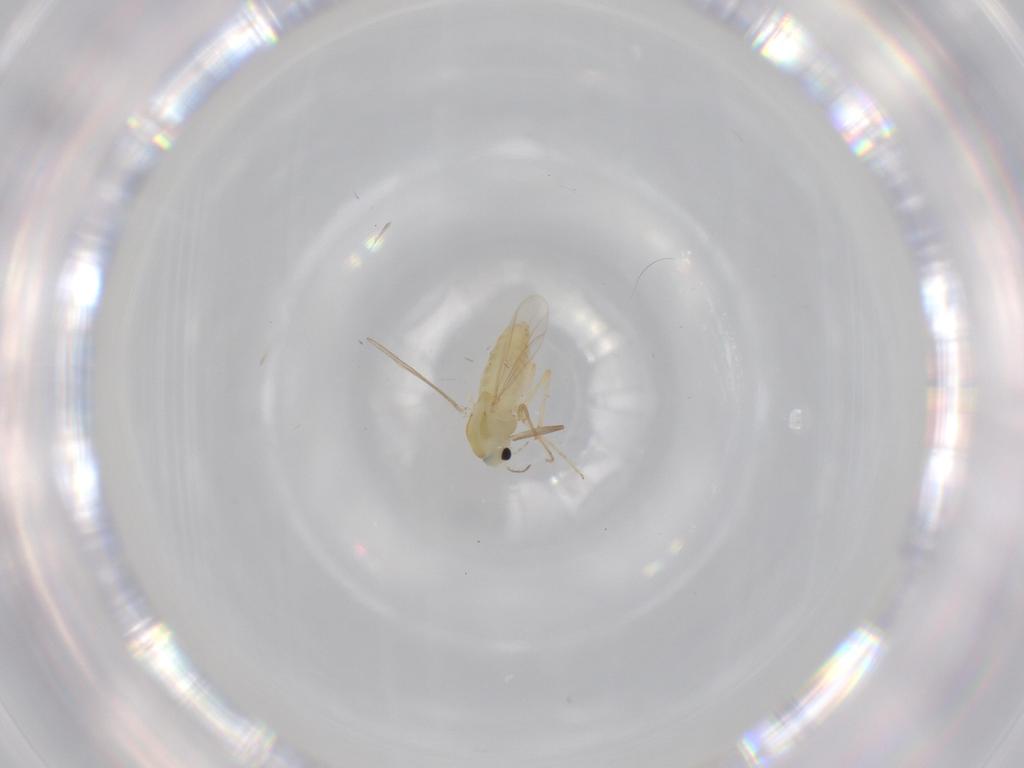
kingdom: Animalia
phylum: Arthropoda
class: Insecta
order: Diptera
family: Chironomidae
